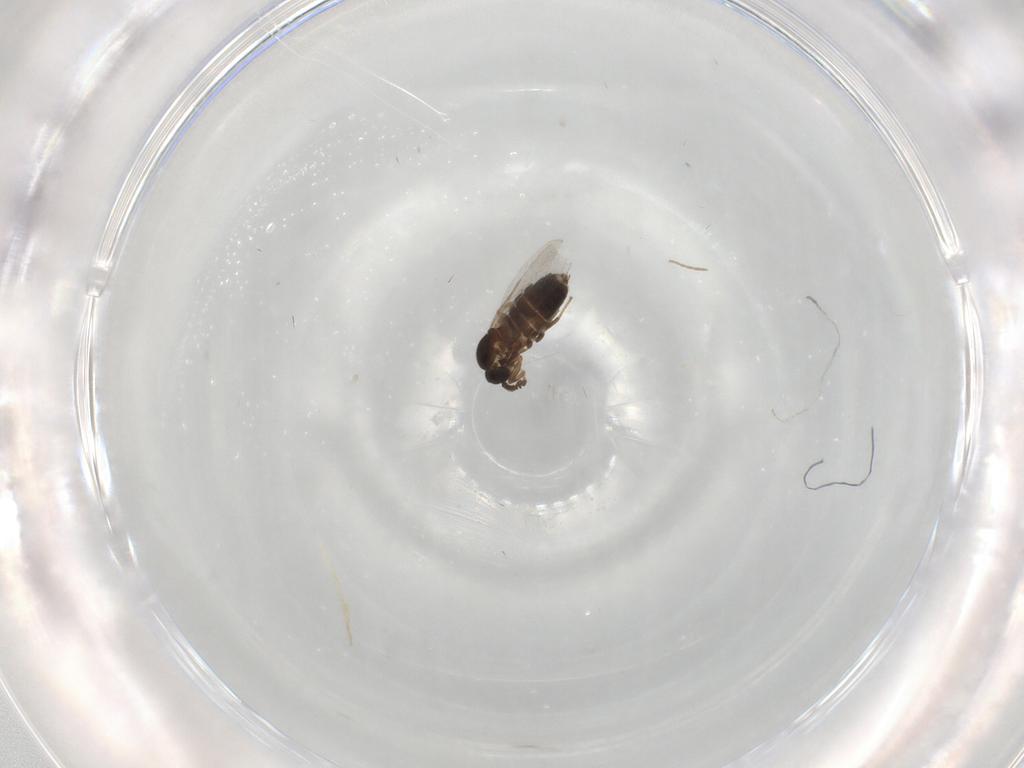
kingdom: Animalia
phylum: Arthropoda
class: Insecta
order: Diptera
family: Scatopsidae
